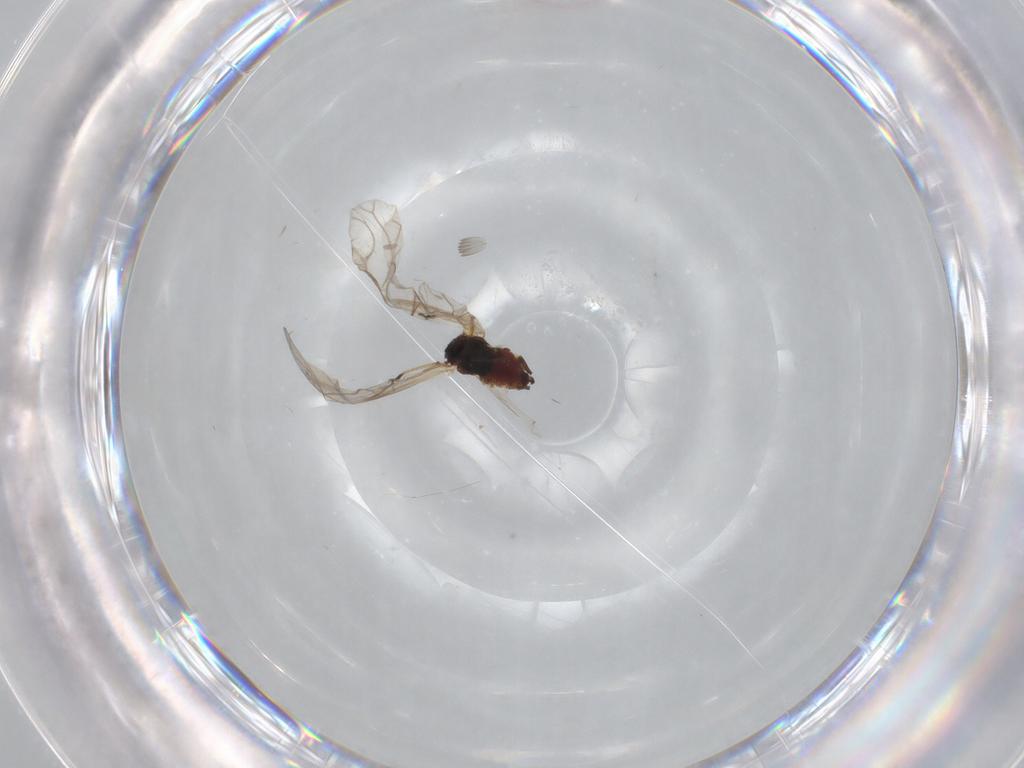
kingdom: Animalia
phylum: Arthropoda
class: Insecta
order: Hemiptera
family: Aphididae
